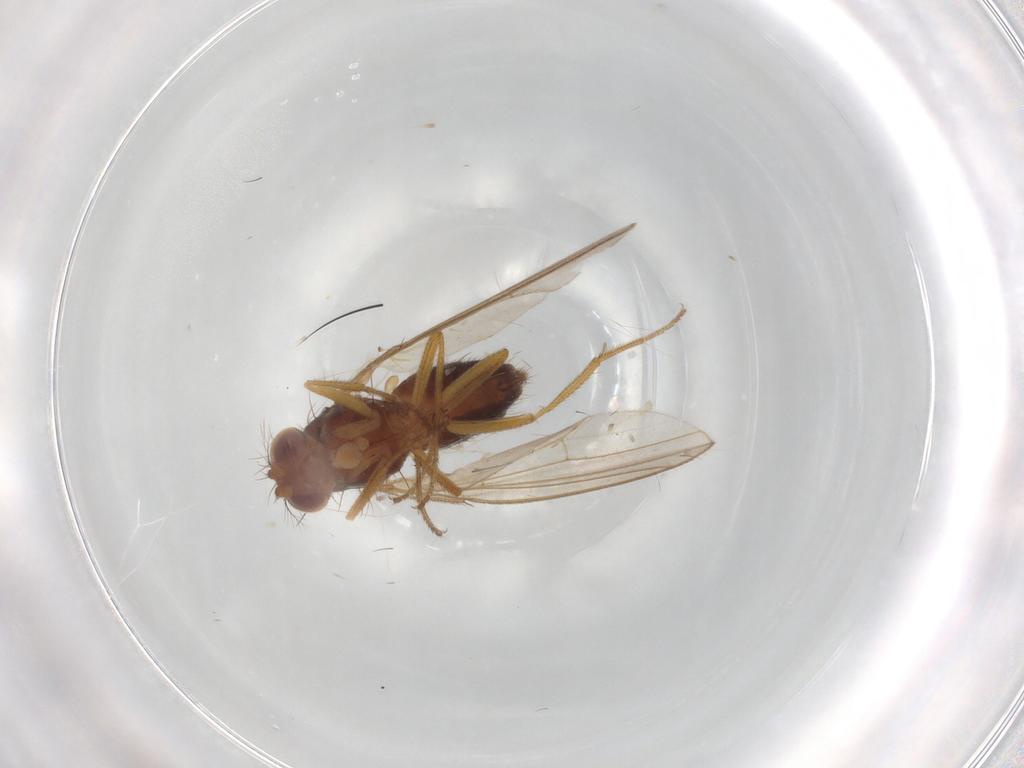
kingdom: Animalia
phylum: Arthropoda
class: Insecta
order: Diptera
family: Drosophilidae
